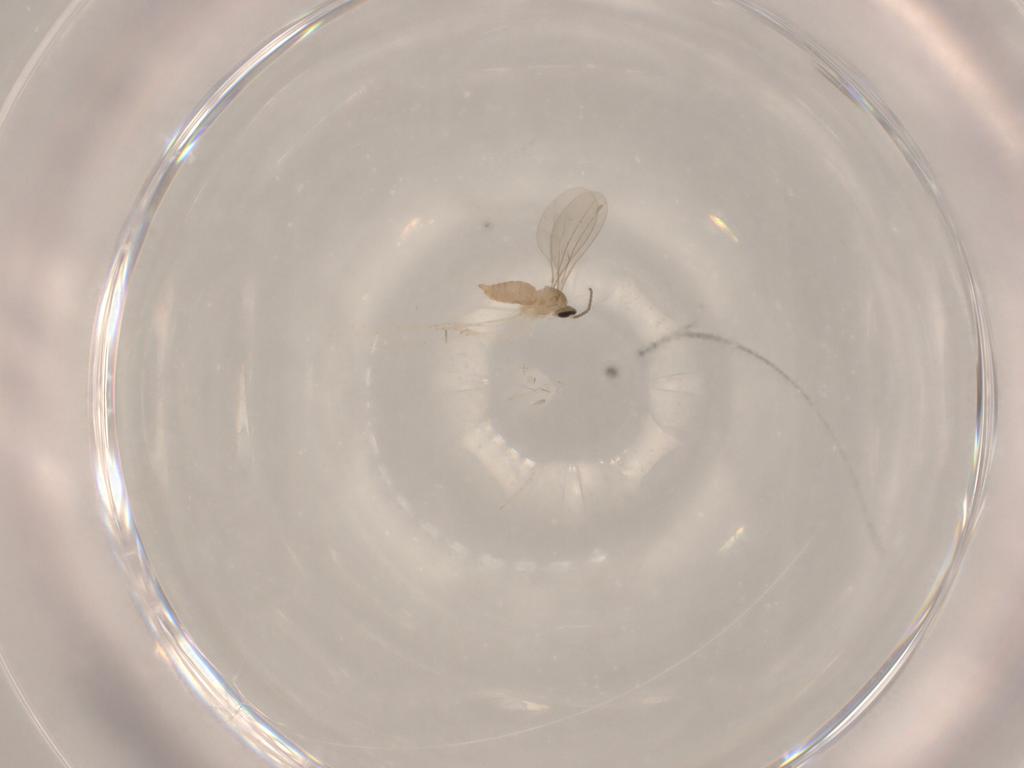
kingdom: Animalia
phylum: Arthropoda
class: Insecta
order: Diptera
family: Cecidomyiidae
